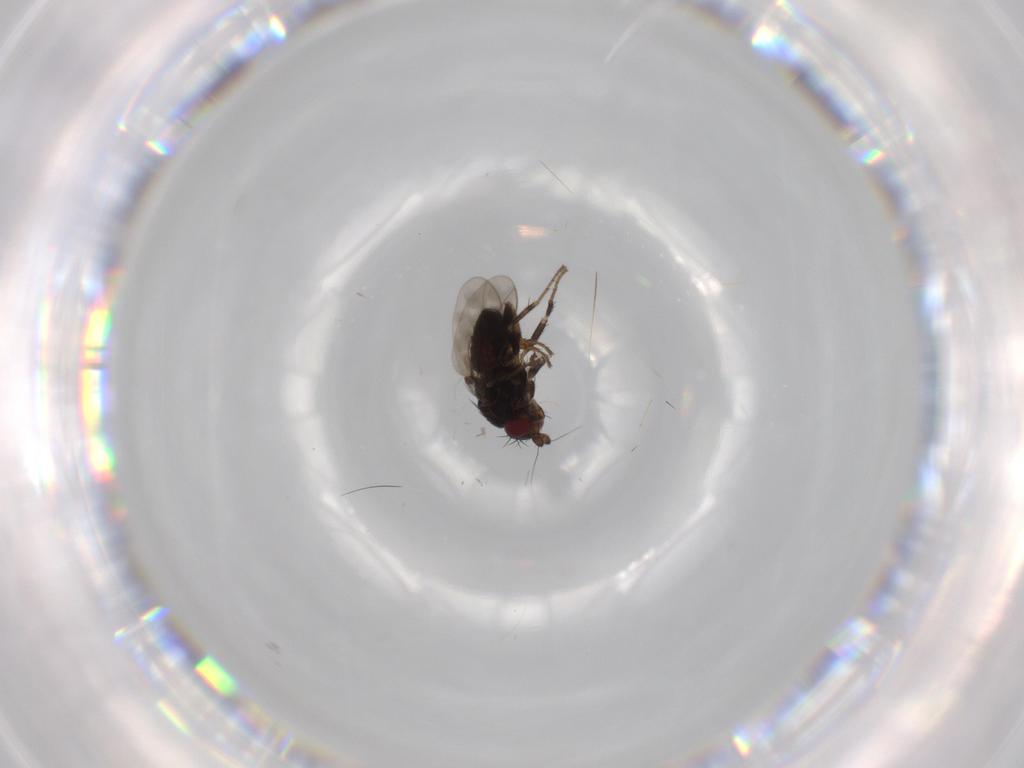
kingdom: Animalia
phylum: Arthropoda
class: Insecta
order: Diptera
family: Sphaeroceridae
